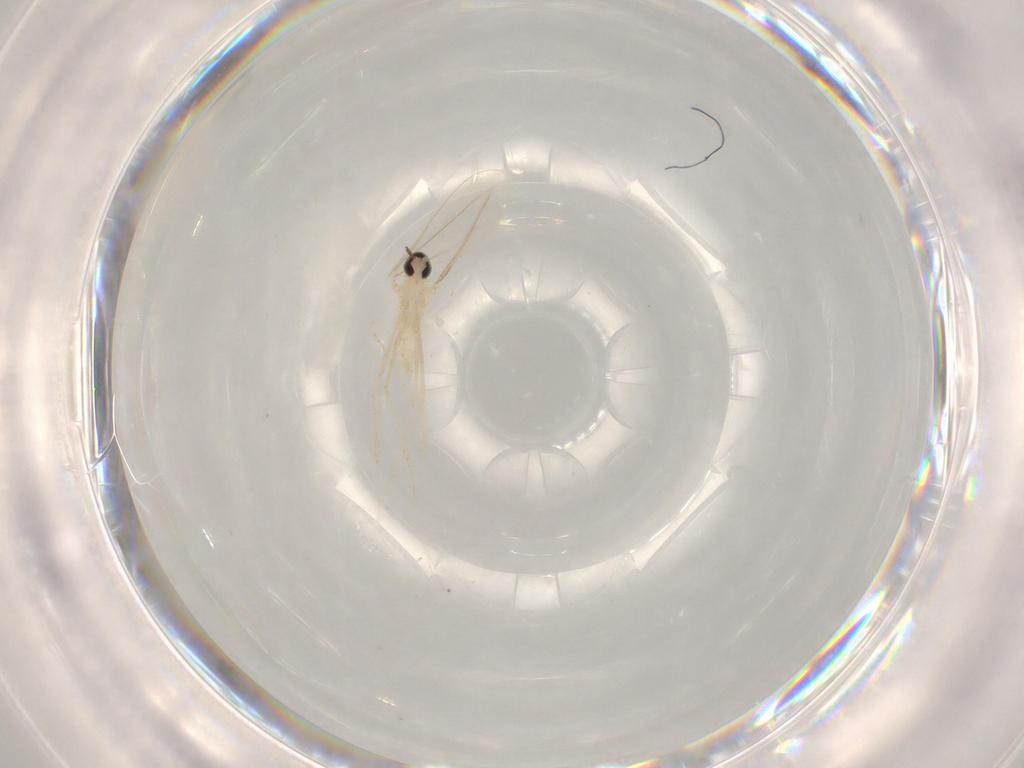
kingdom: Animalia
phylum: Arthropoda
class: Insecta
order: Diptera
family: Cecidomyiidae
